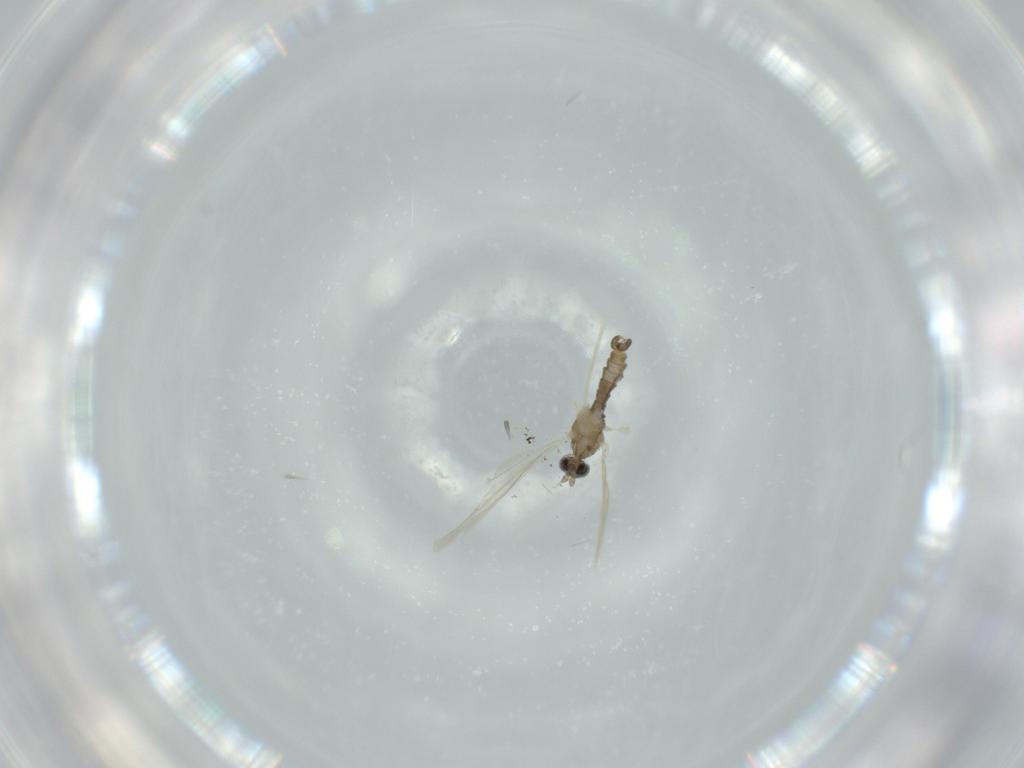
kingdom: Animalia
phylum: Arthropoda
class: Insecta
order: Diptera
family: Cecidomyiidae
